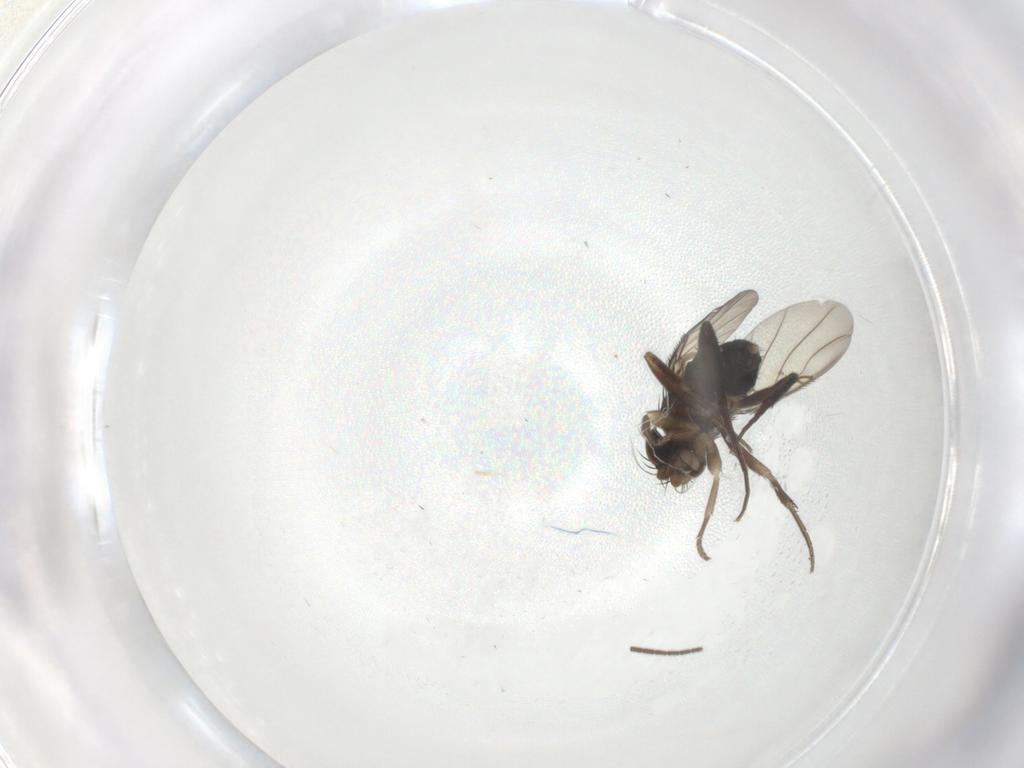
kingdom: Animalia
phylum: Arthropoda
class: Insecta
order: Diptera
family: Phoridae
